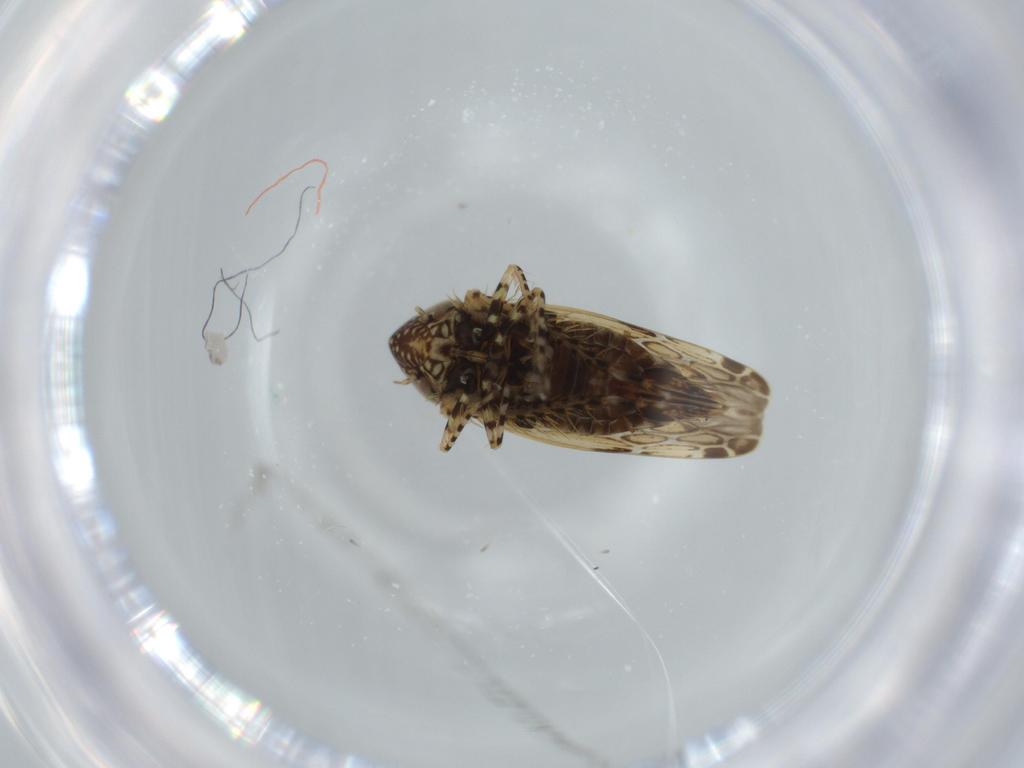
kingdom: Animalia
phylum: Arthropoda
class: Insecta
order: Hemiptera
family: Cicadellidae
